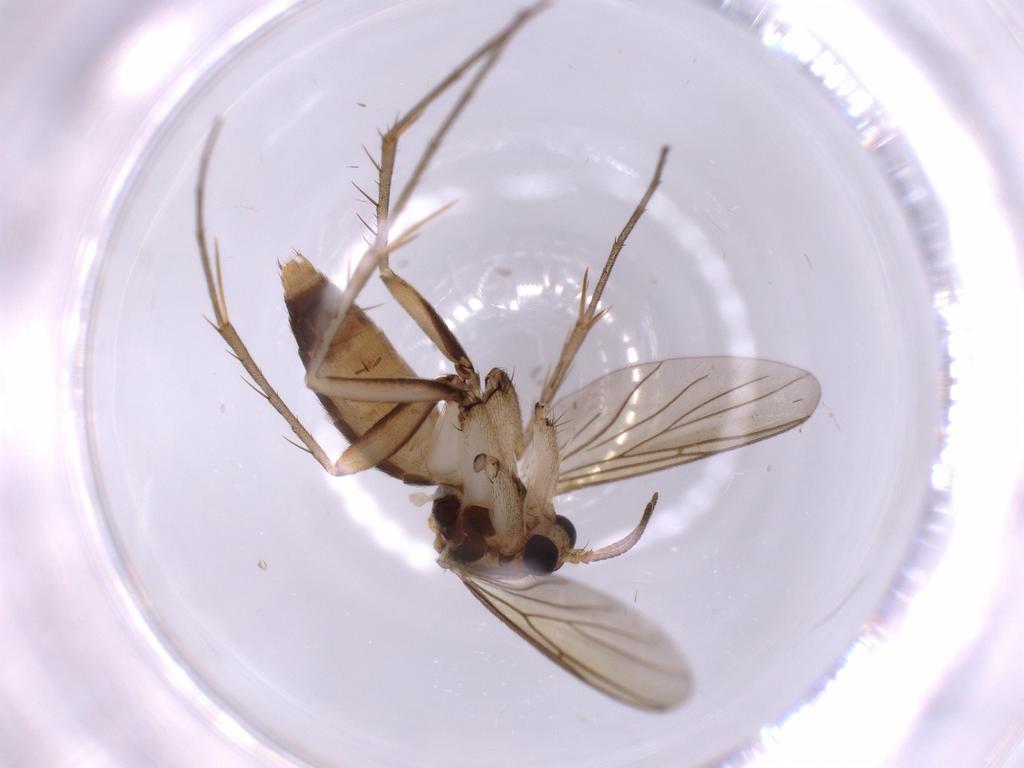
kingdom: Animalia
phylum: Arthropoda
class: Insecta
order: Diptera
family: Mycetophilidae
